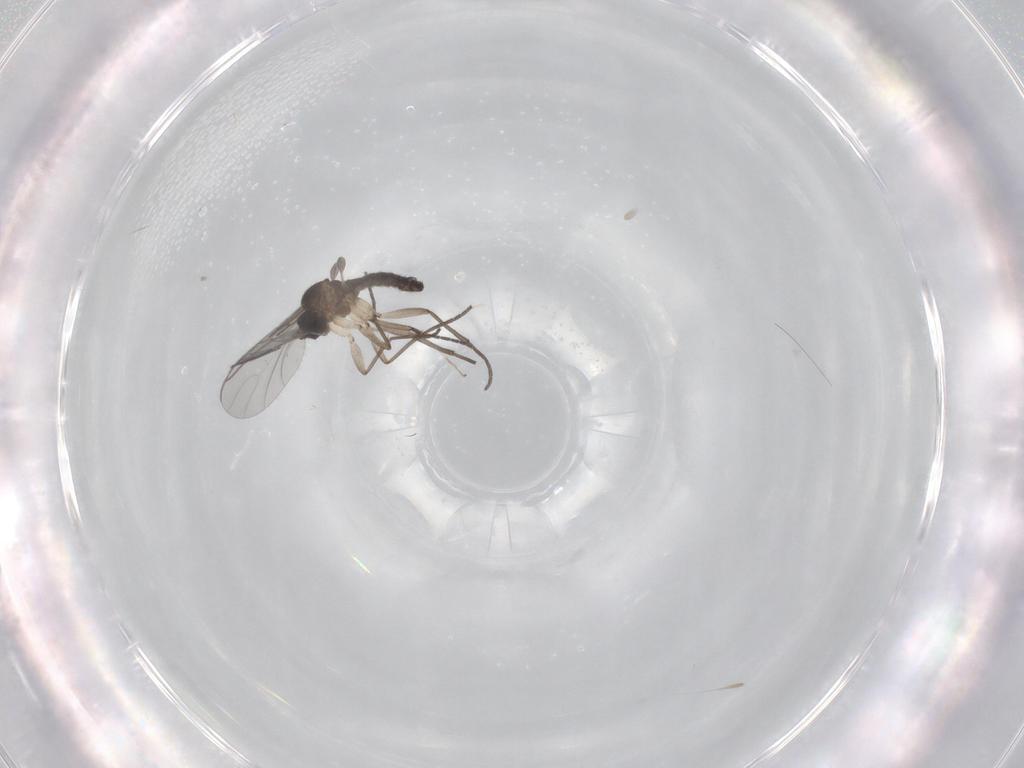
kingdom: Animalia
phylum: Arthropoda
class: Insecta
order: Diptera
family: Sciaridae
